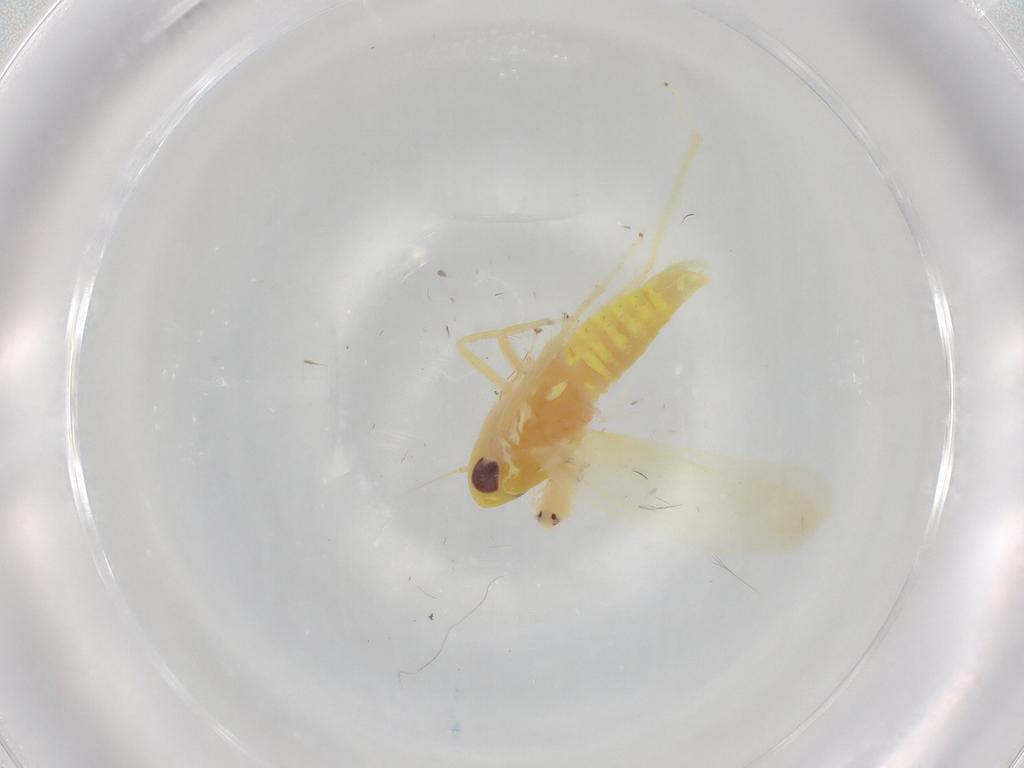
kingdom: Animalia
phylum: Arthropoda
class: Insecta
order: Hemiptera
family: Cicadellidae
